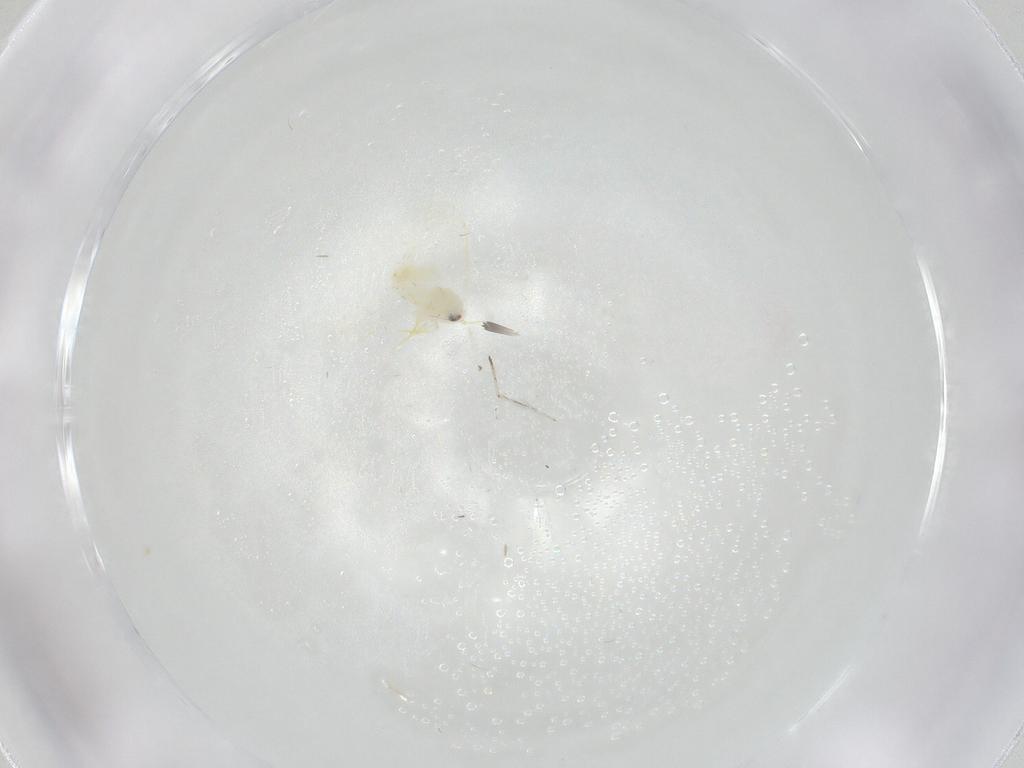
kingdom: Animalia
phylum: Arthropoda
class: Insecta
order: Hemiptera
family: Aleyrodidae
